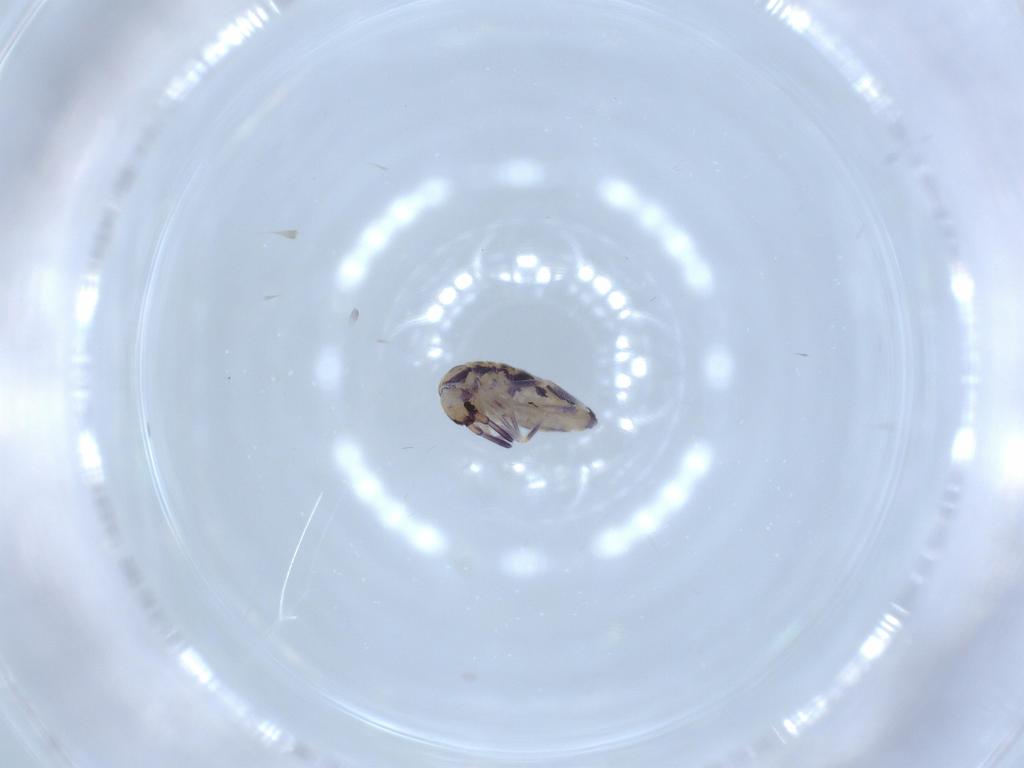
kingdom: Animalia
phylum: Arthropoda
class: Collembola
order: Entomobryomorpha
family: Entomobryidae
